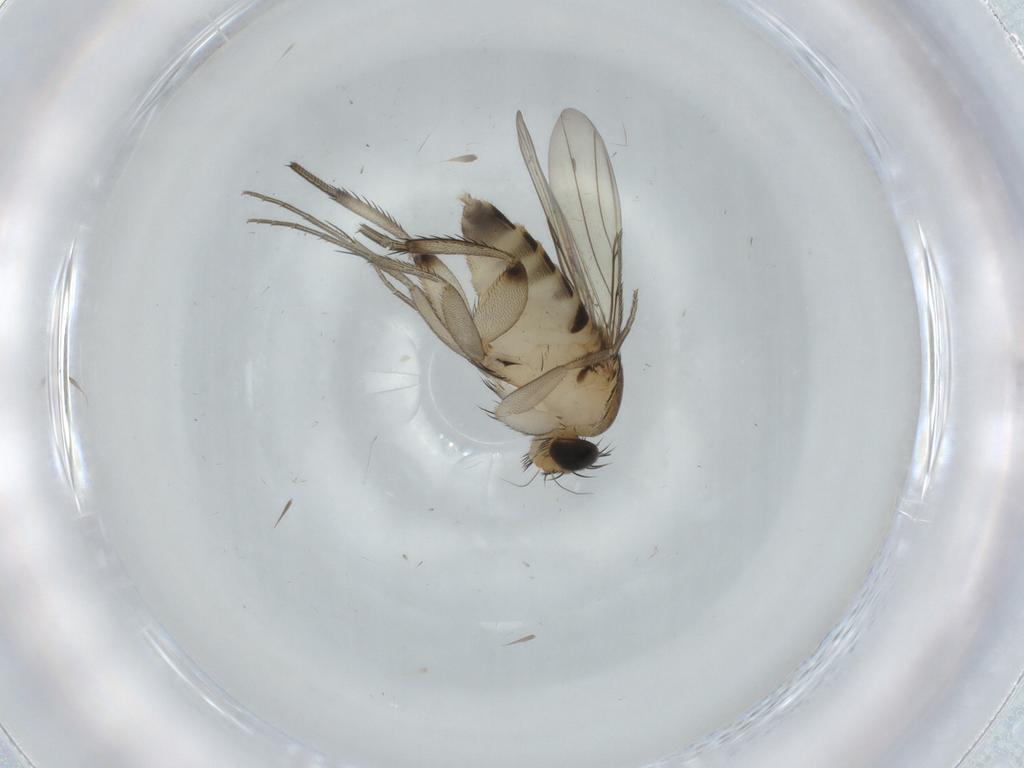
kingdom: Animalia
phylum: Arthropoda
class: Insecta
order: Diptera
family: Phoridae
